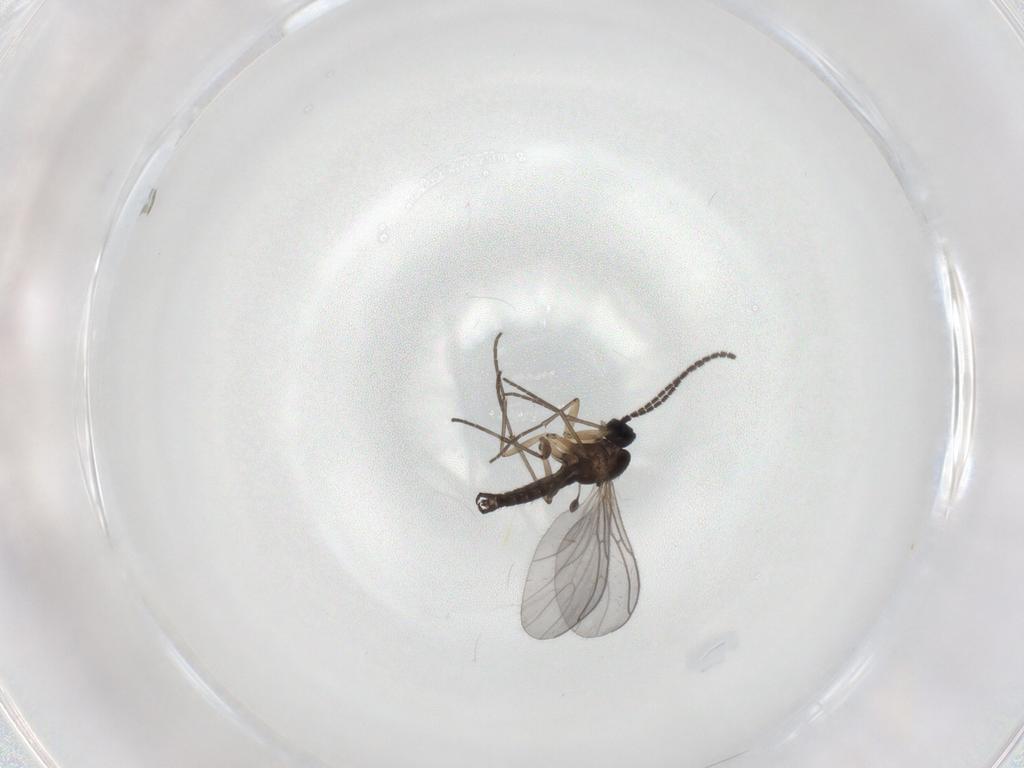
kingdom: Animalia
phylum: Arthropoda
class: Insecta
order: Diptera
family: Sciaridae
